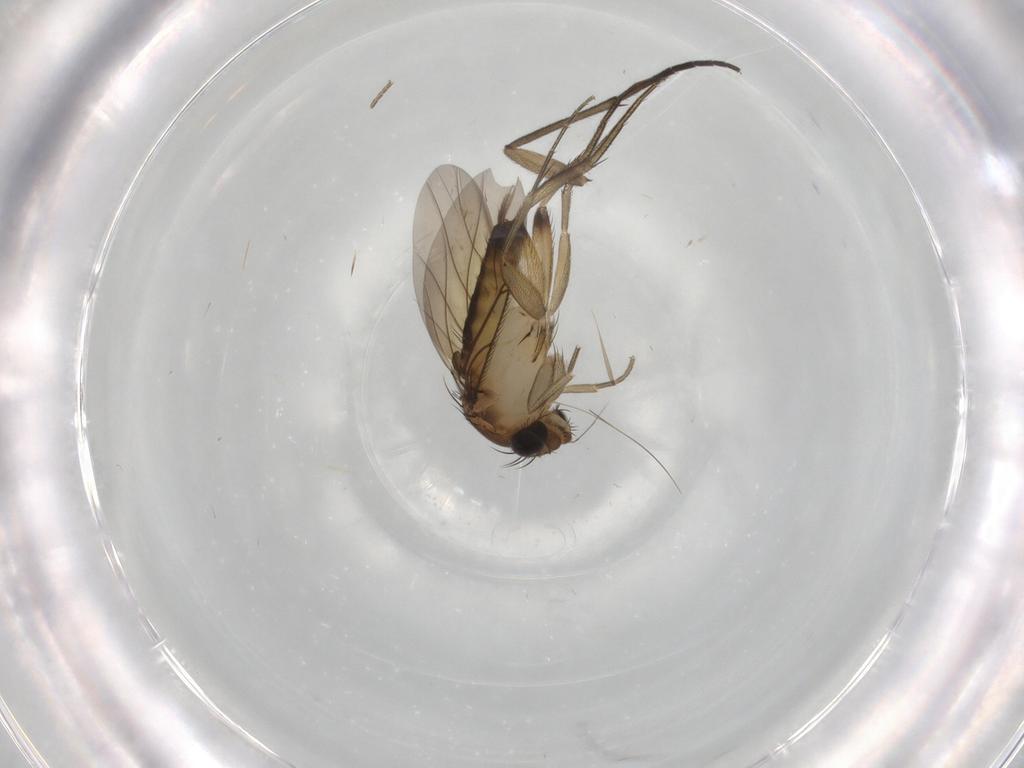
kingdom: Animalia
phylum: Arthropoda
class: Insecta
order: Diptera
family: Phoridae
